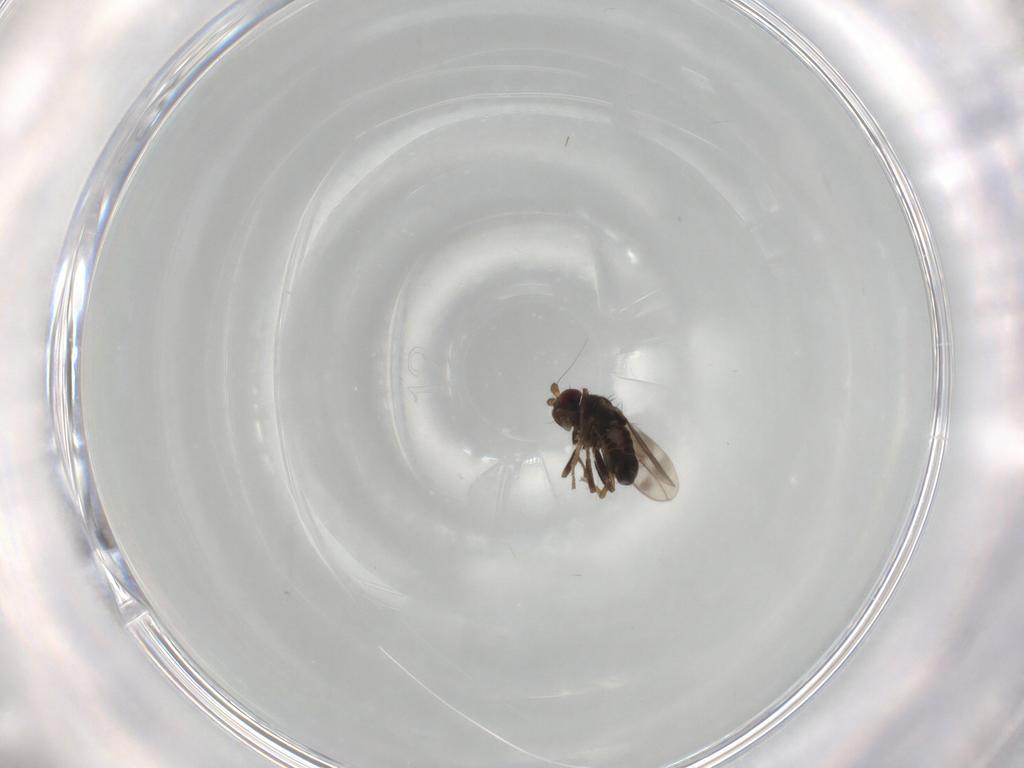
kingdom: Animalia
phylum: Arthropoda
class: Insecta
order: Diptera
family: Sphaeroceridae
